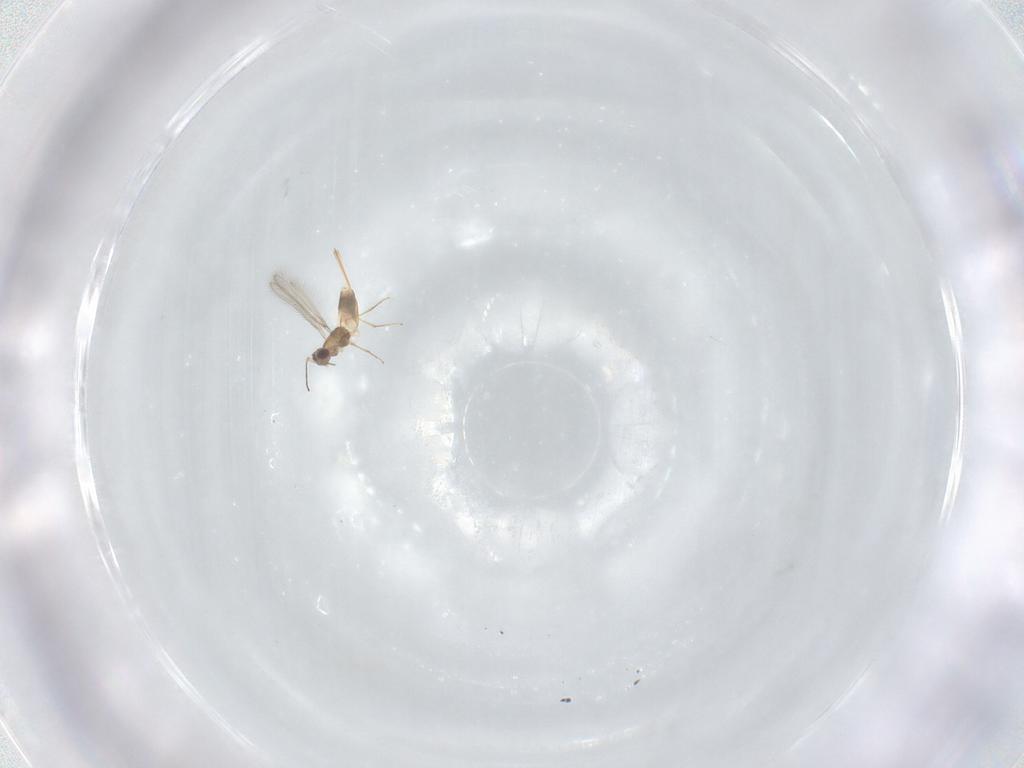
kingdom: Animalia
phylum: Arthropoda
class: Insecta
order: Hymenoptera
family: Mymaridae
